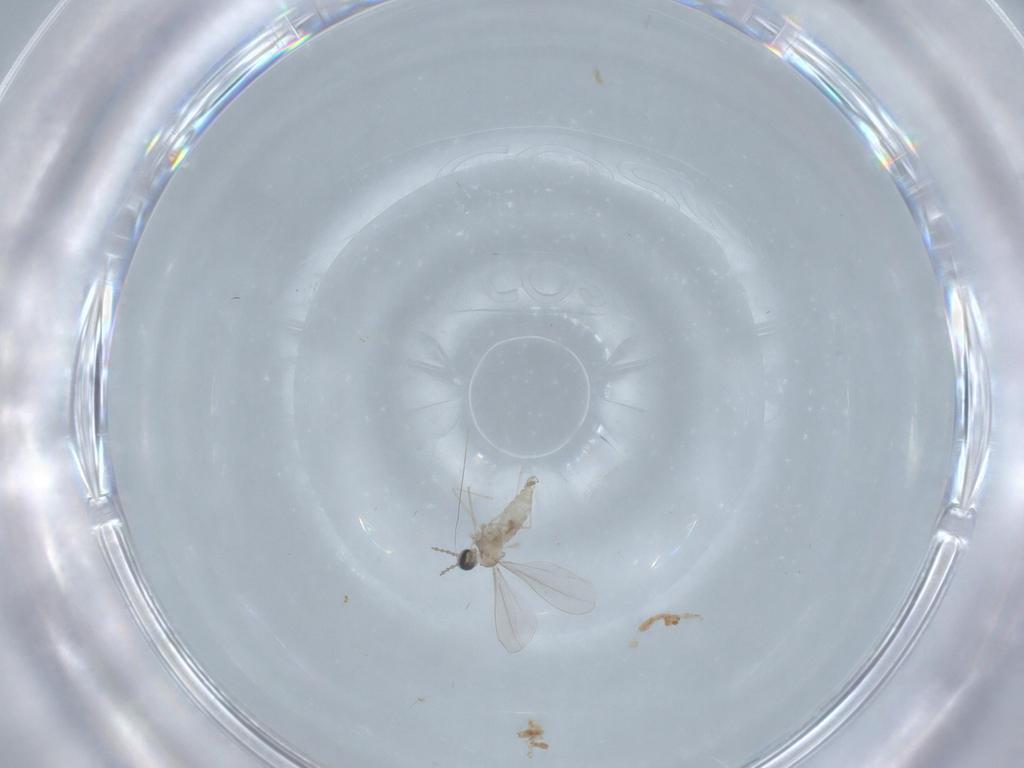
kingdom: Animalia
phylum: Arthropoda
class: Insecta
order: Diptera
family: Cecidomyiidae
